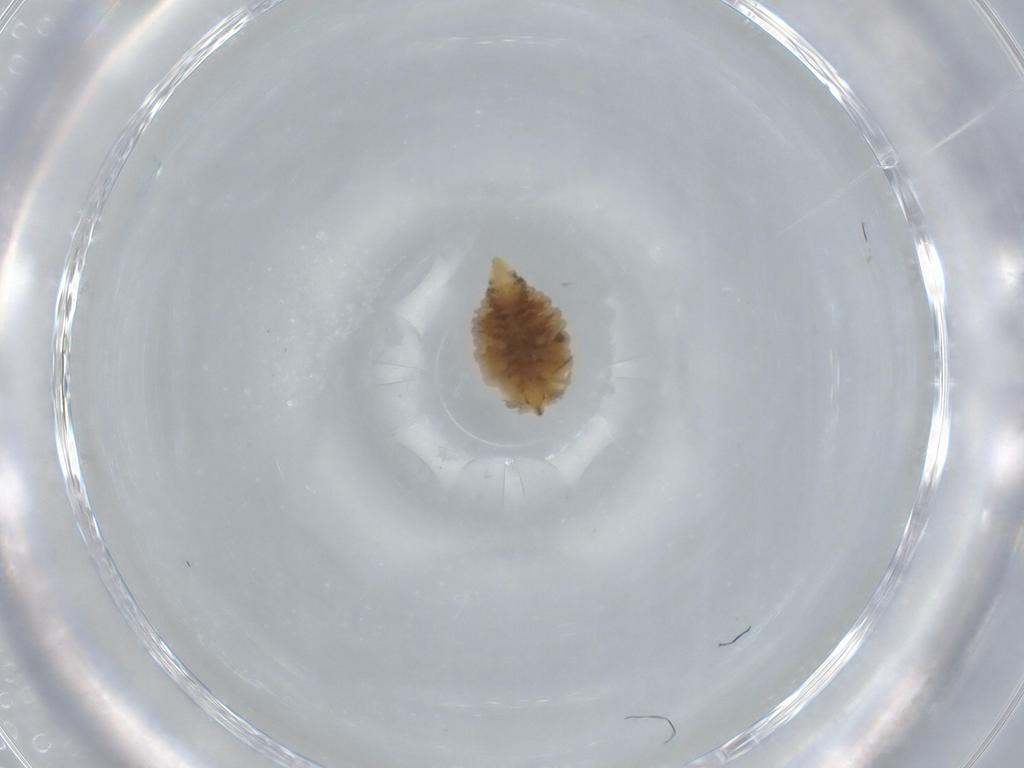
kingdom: Animalia
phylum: Arthropoda
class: Insecta
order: Neuroptera
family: Coniopterygidae
